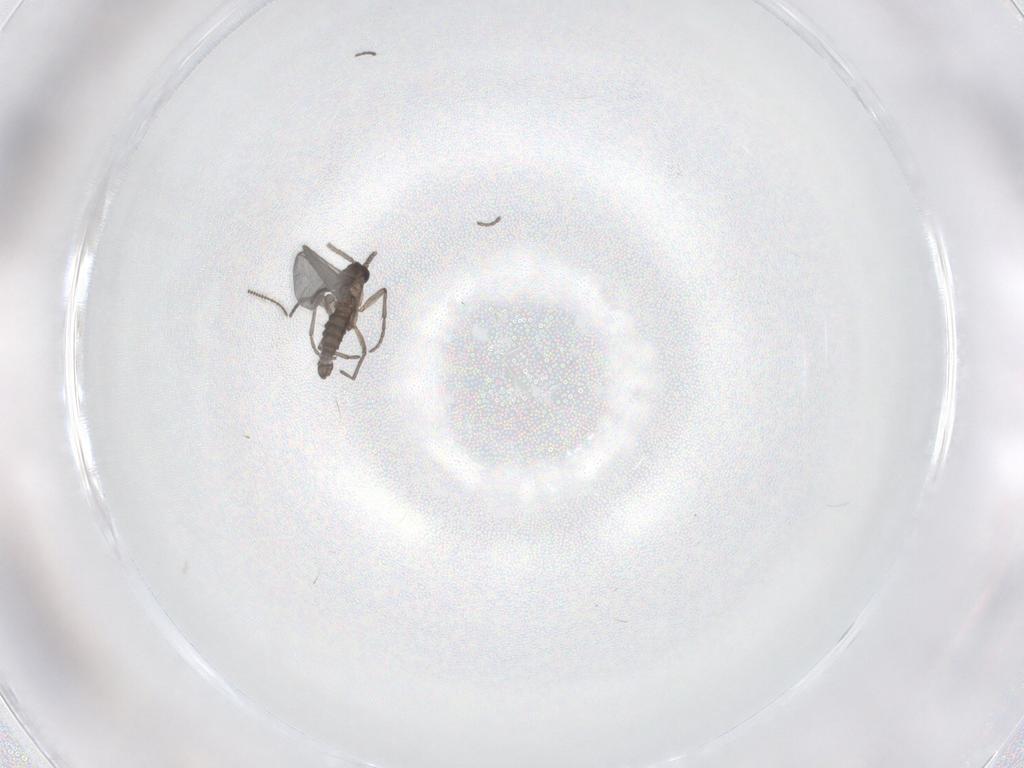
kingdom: Animalia
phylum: Arthropoda
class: Insecta
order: Diptera
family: Sciaridae
